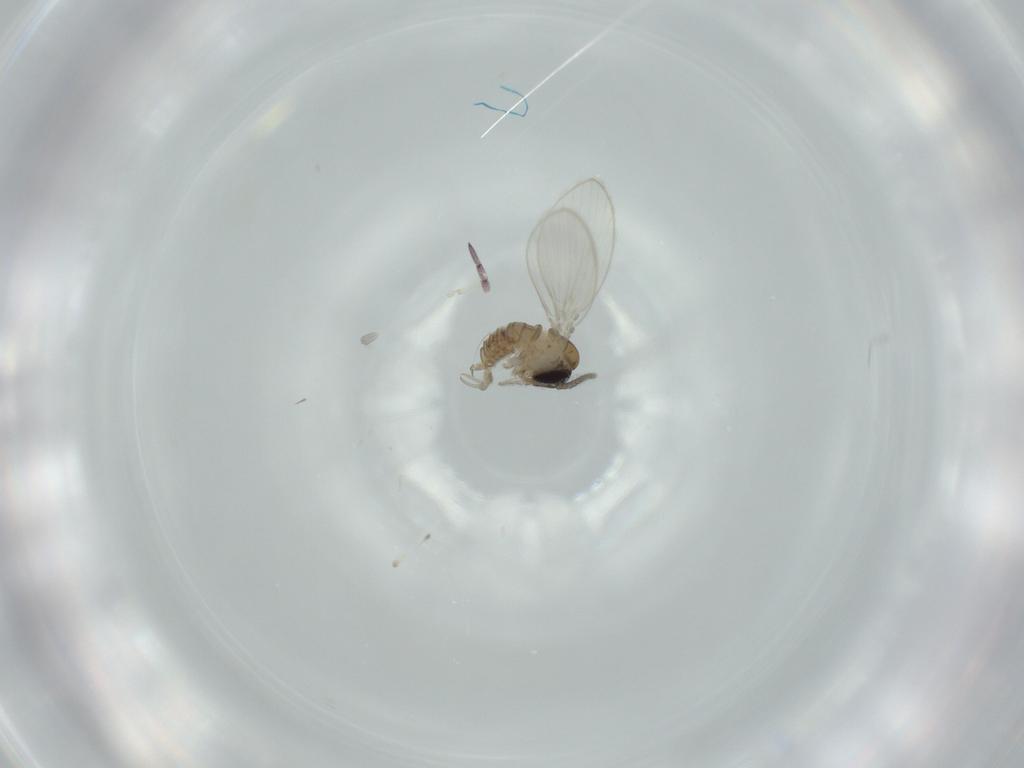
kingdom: Animalia
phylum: Arthropoda
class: Insecta
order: Diptera
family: Psychodidae
